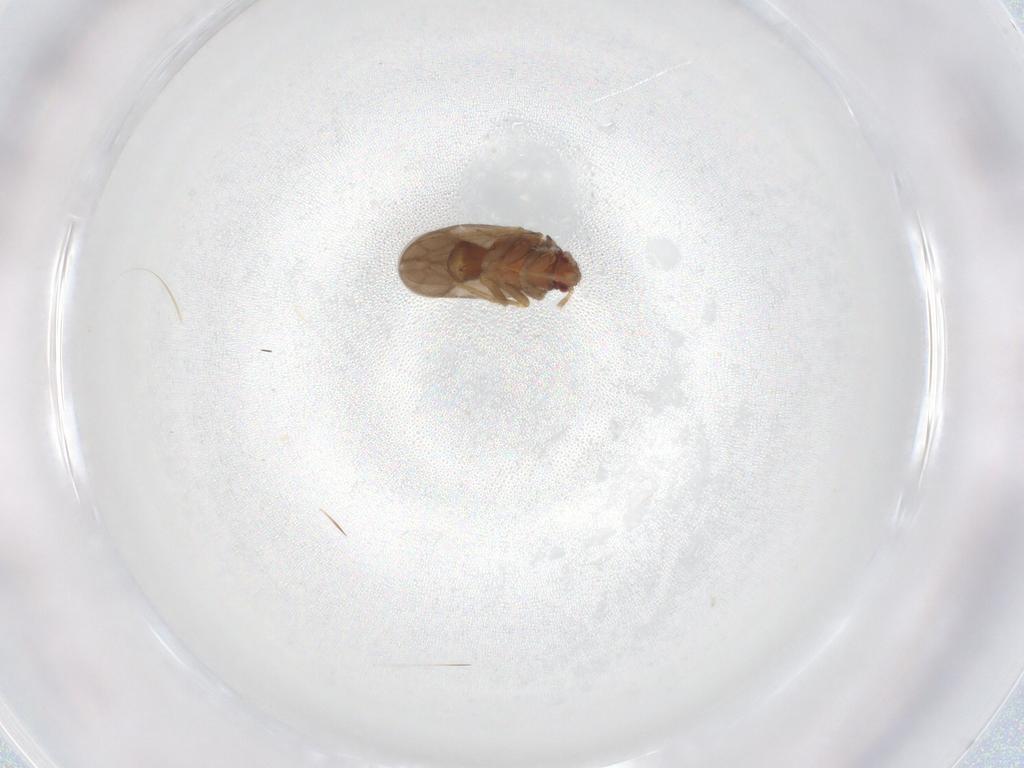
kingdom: Animalia
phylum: Arthropoda
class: Insecta
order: Hemiptera
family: Ceratocombidae
